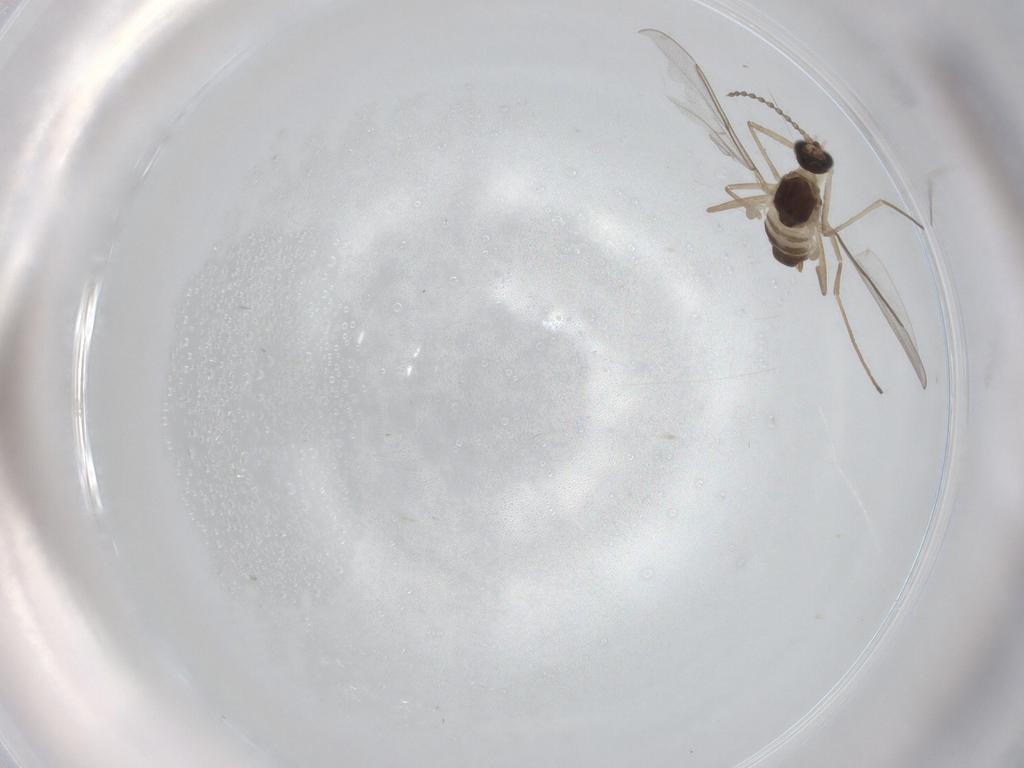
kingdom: Animalia
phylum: Arthropoda
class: Insecta
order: Diptera
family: Cecidomyiidae
